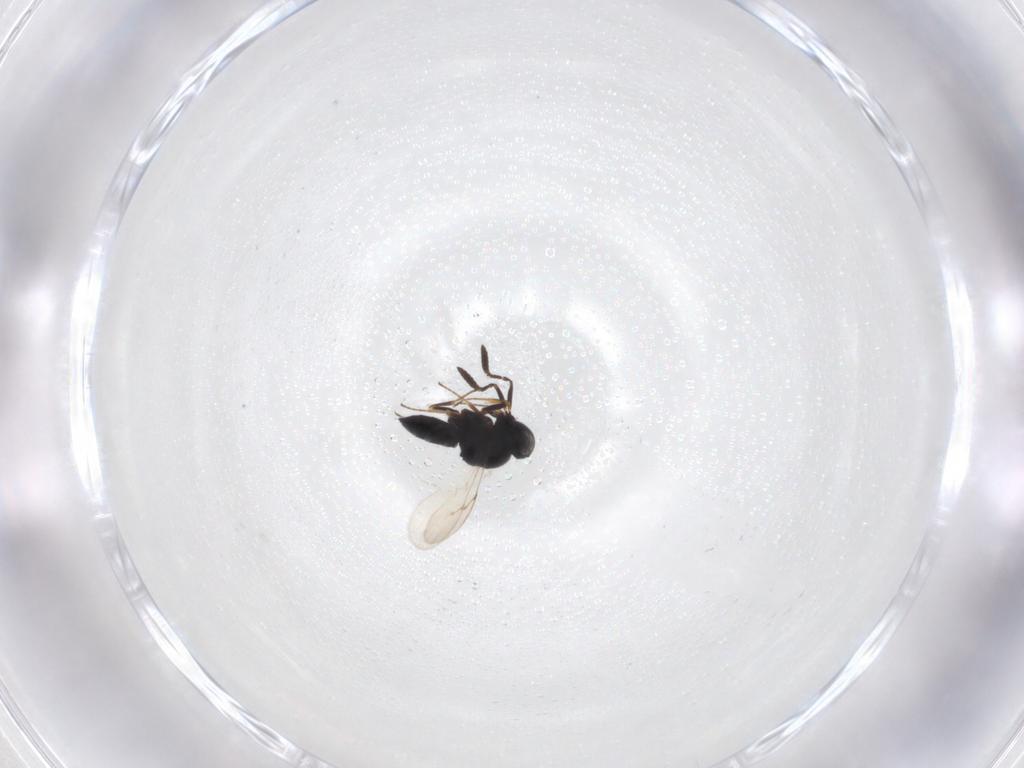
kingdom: Animalia
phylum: Arthropoda
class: Insecta
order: Hymenoptera
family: Scelionidae
